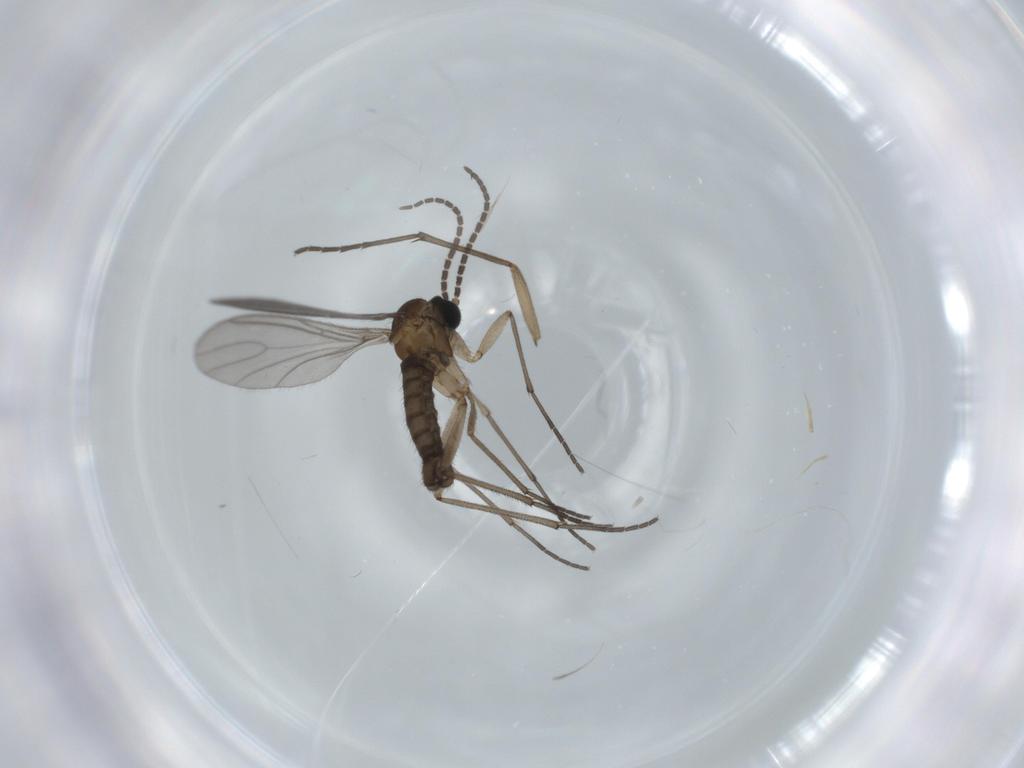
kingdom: Animalia
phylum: Arthropoda
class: Insecta
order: Diptera
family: Sciaridae
